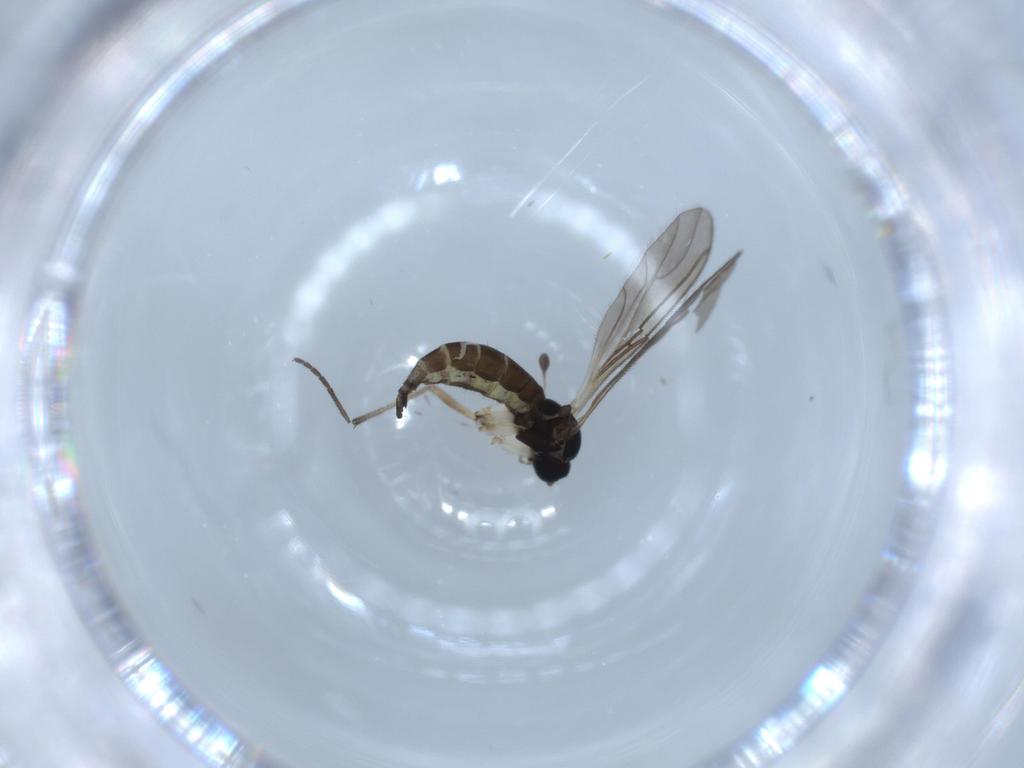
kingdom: Animalia
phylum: Arthropoda
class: Insecta
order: Diptera
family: Sciaridae
